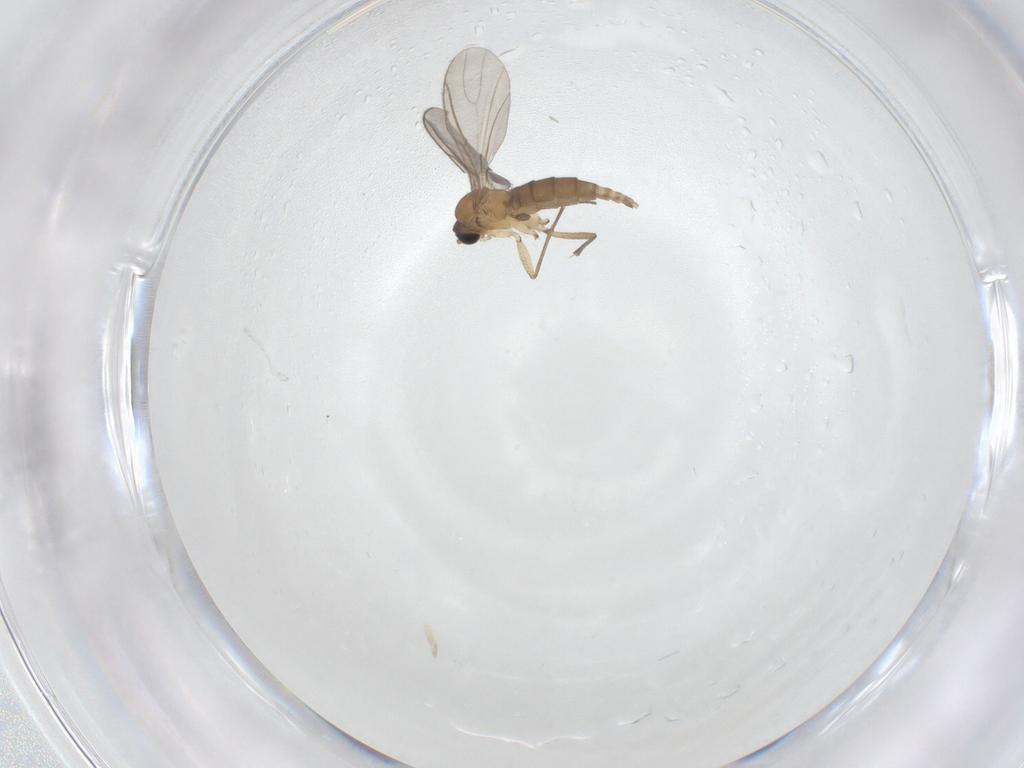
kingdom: Animalia
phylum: Arthropoda
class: Insecta
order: Diptera
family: Sciaridae
